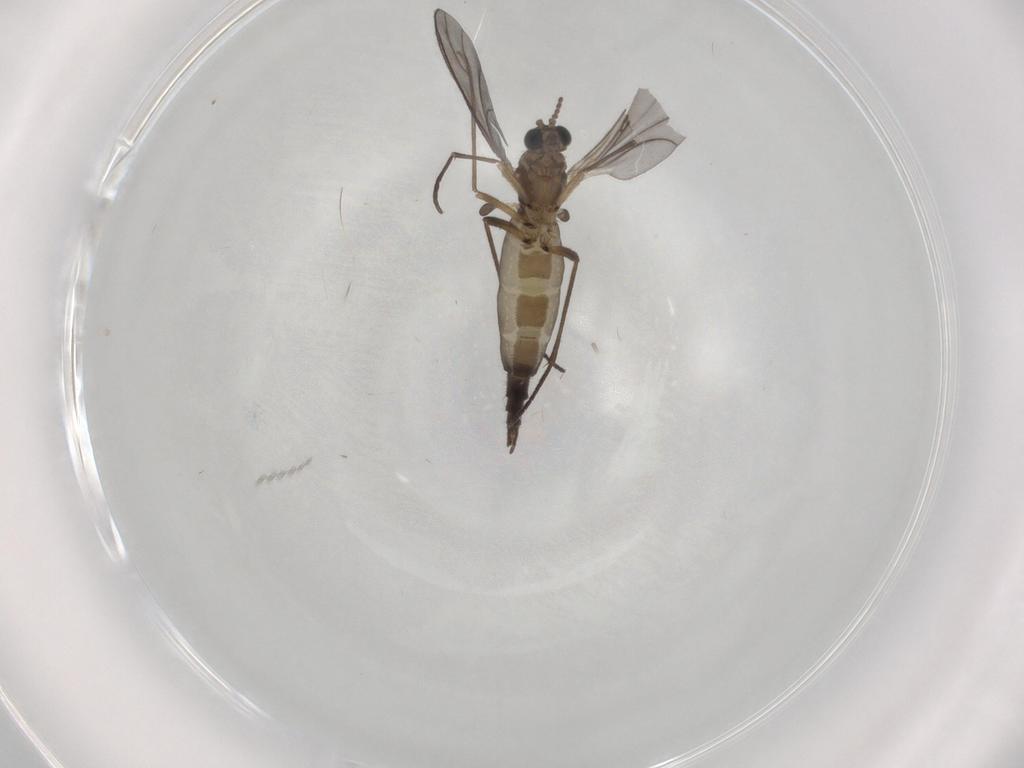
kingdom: Animalia
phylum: Arthropoda
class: Insecta
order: Diptera
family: Sciaridae
